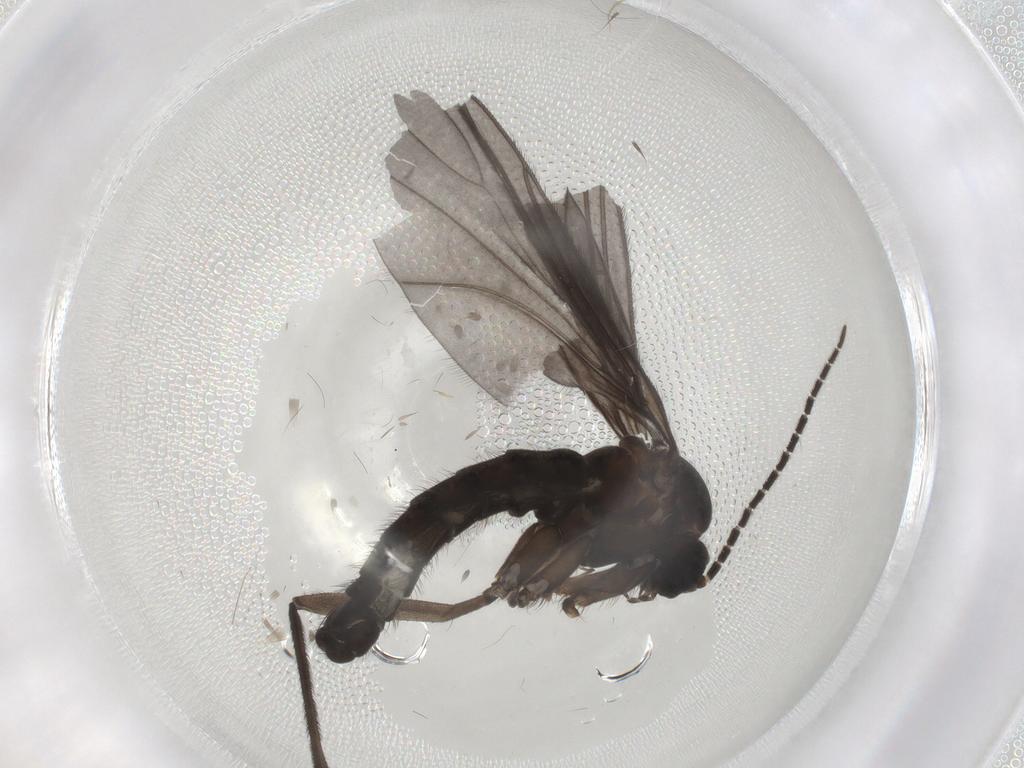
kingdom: Animalia
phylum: Arthropoda
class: Insecta
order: Diptera
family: Sciaridae
